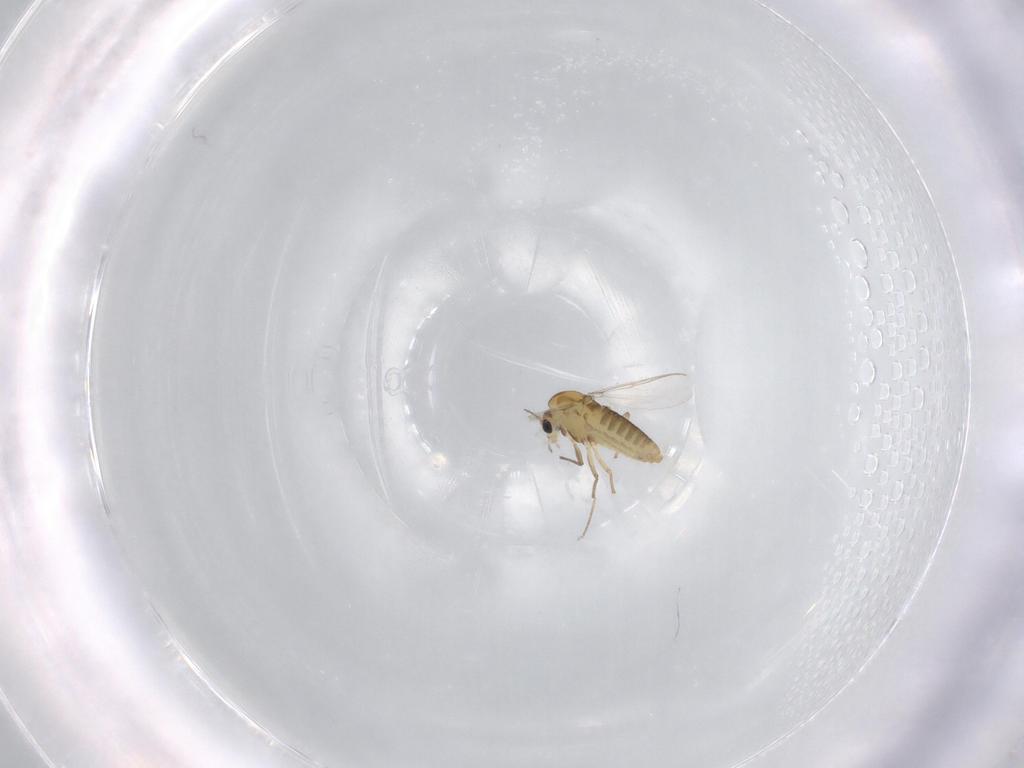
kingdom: Animalia
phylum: Arthropoda
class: Insecta
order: Diptera
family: Chironomidae
